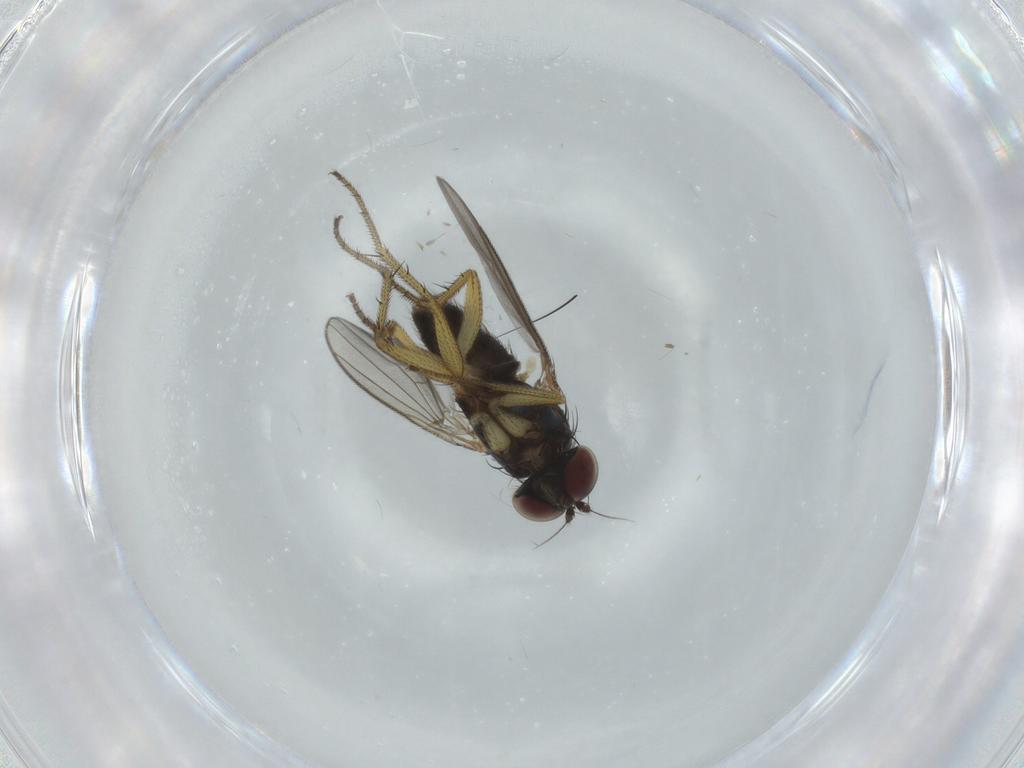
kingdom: Animalia
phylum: Arthropoda
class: Insecta
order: Diptera
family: Dolichopodidae
